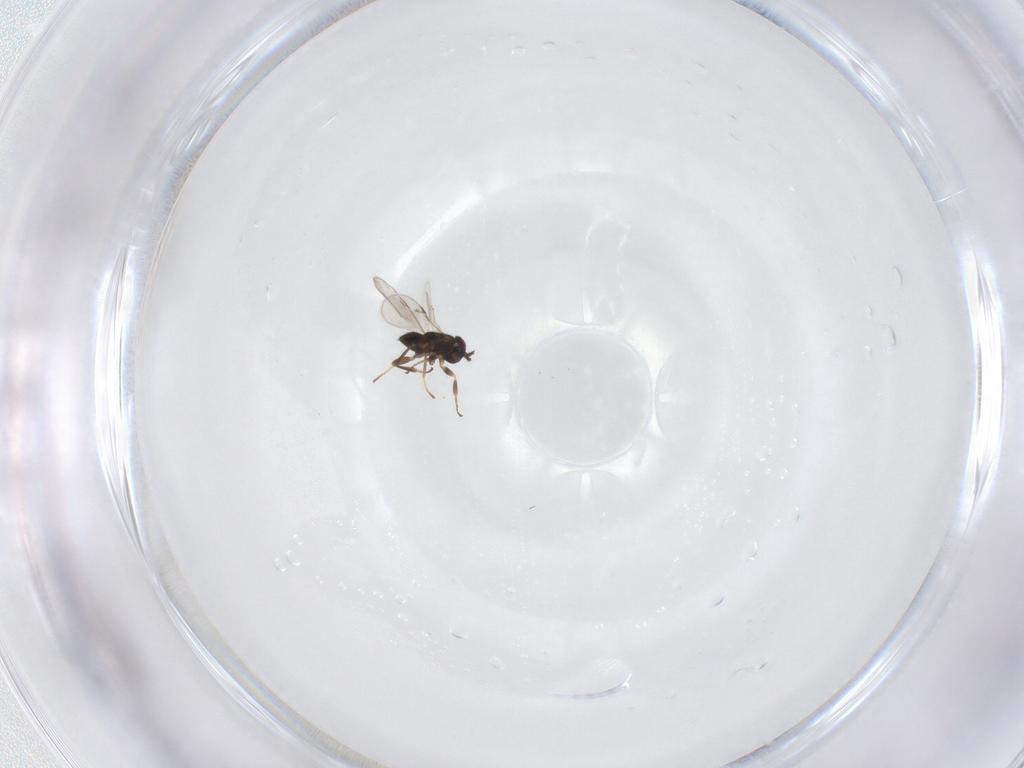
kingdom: Animalia
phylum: Arthropoda
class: Insecta
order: Hymenoptera
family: Encyrtidae
